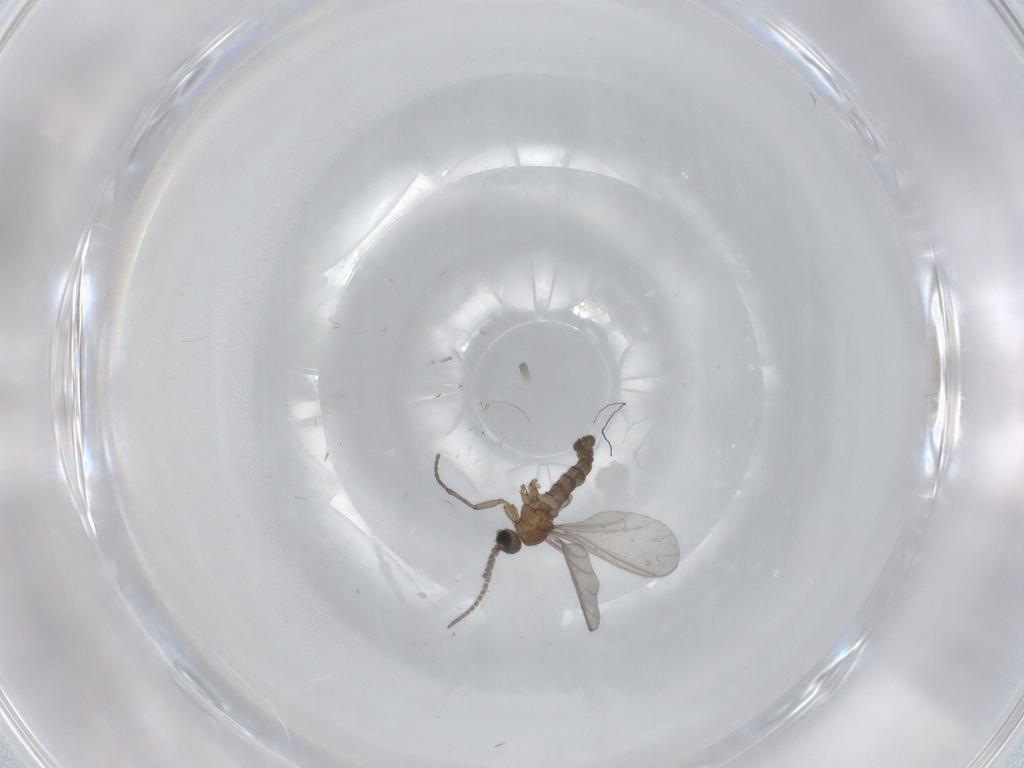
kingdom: Animalia
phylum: Arthropoda
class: Insecta
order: Diptera
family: Sciaridae
